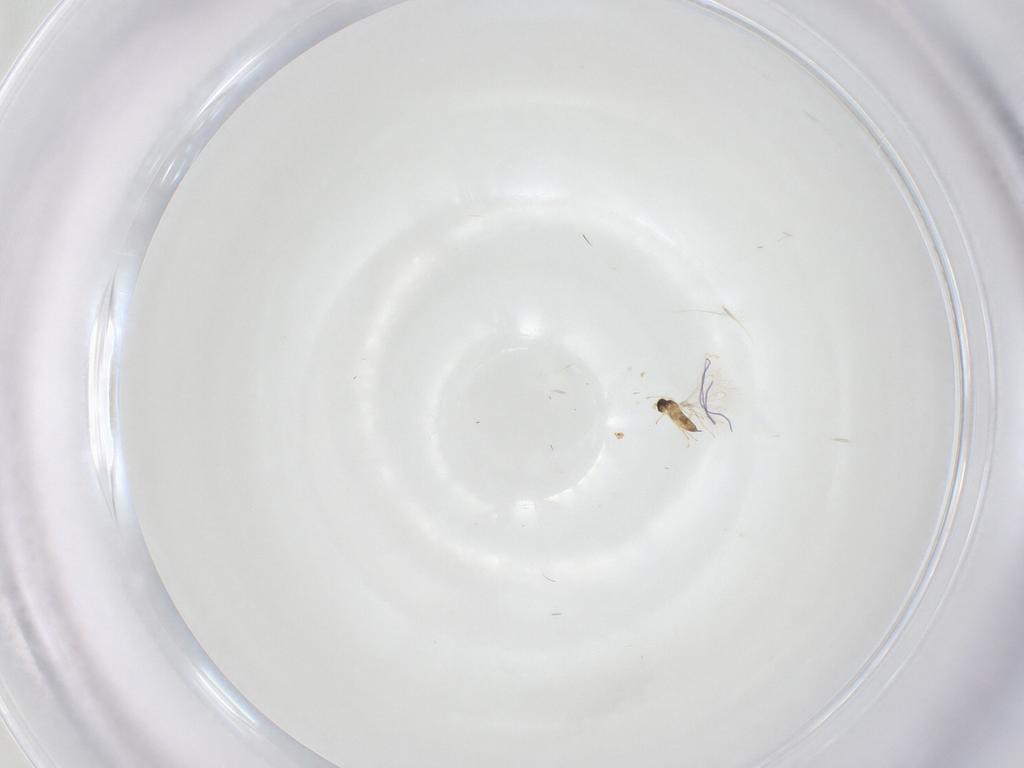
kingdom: Animalia
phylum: Arthropoda
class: Insecta
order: Hymenoptera
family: Mymaridae
